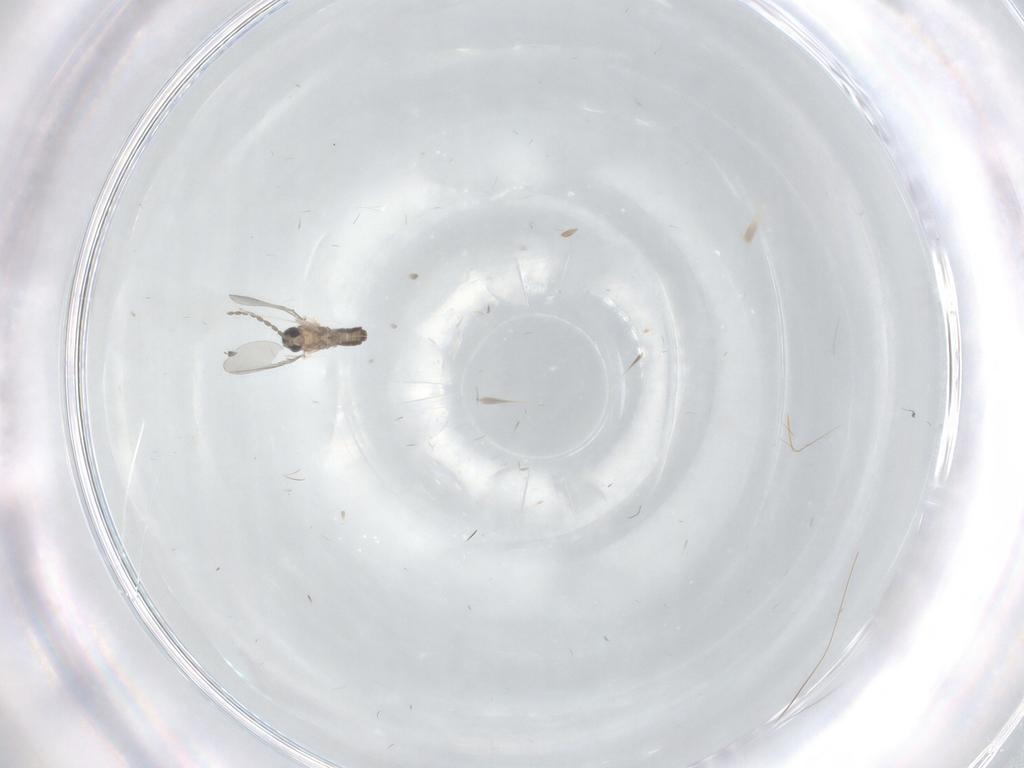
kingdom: Animalia
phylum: Arthropoda
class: Insecta
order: Diptera
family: Cecidomyiidae
